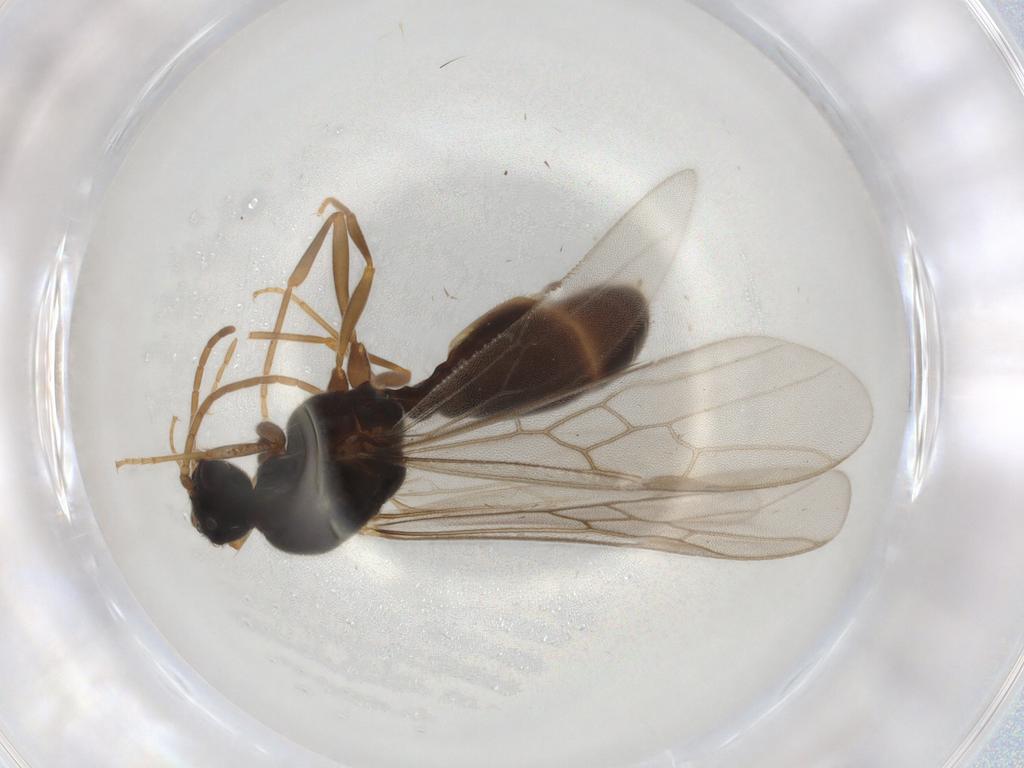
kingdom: Animalia
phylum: Arthropoda
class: Insecta
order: Hymenoptera
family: Formicidae
